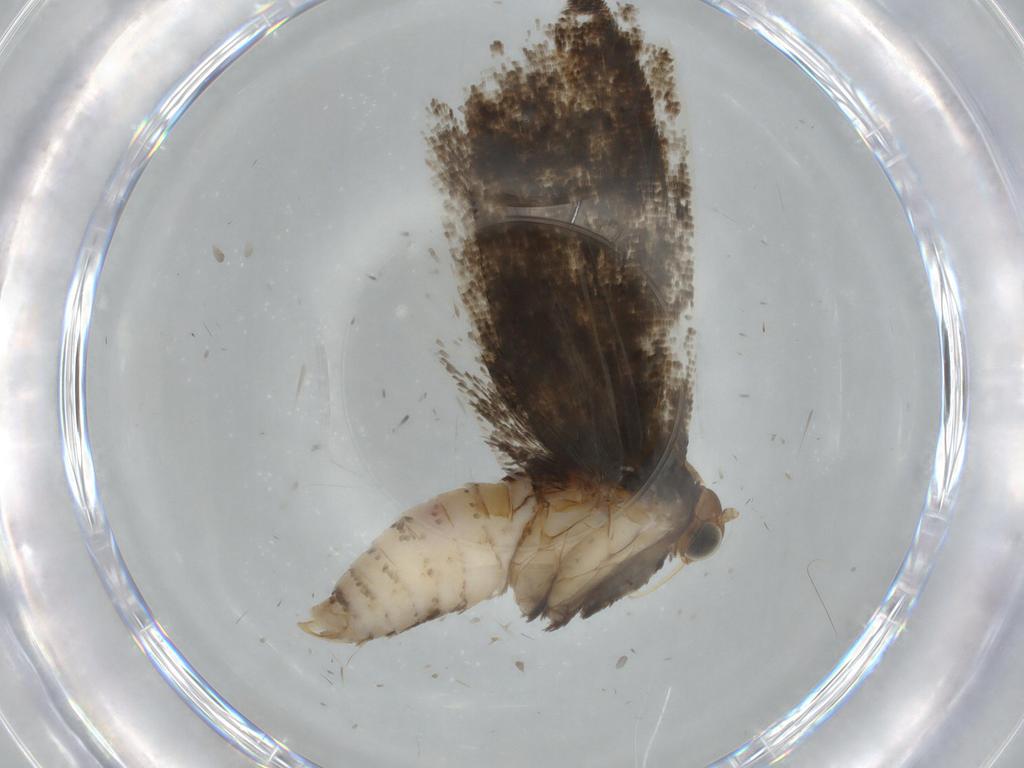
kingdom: Animalia
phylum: Arthropoda
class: Insecta
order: Lepidoptera
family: Tortricidae
